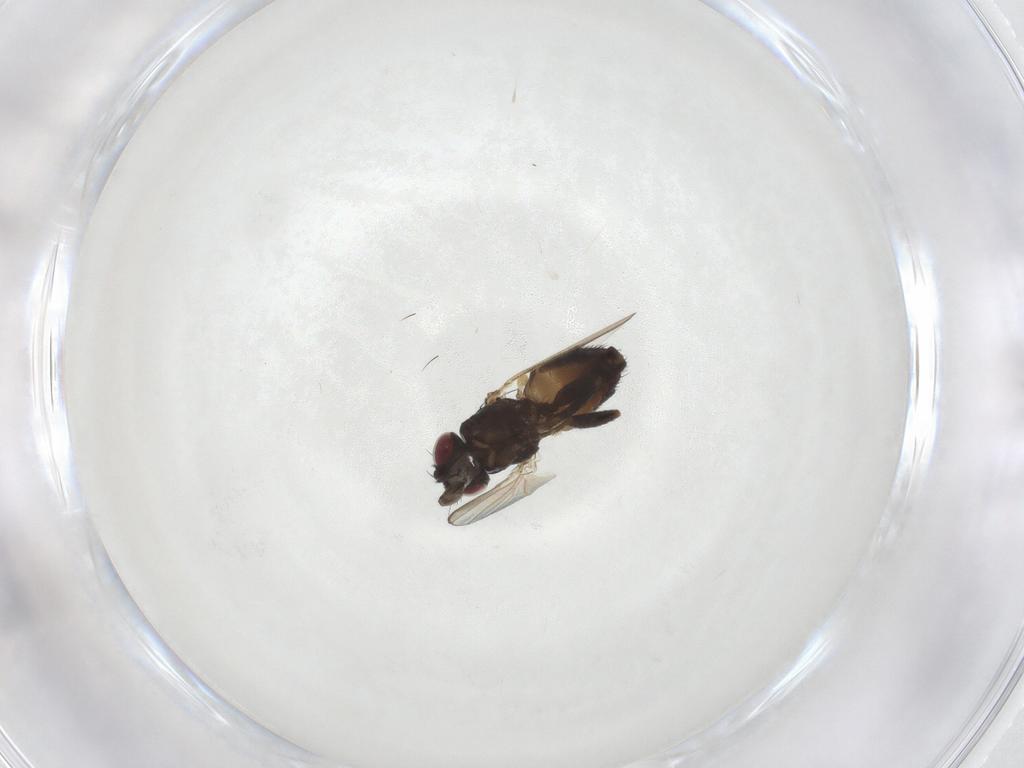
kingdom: Animalia
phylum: Arthropoda
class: Insecta
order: Diptera
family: Milichiidae
